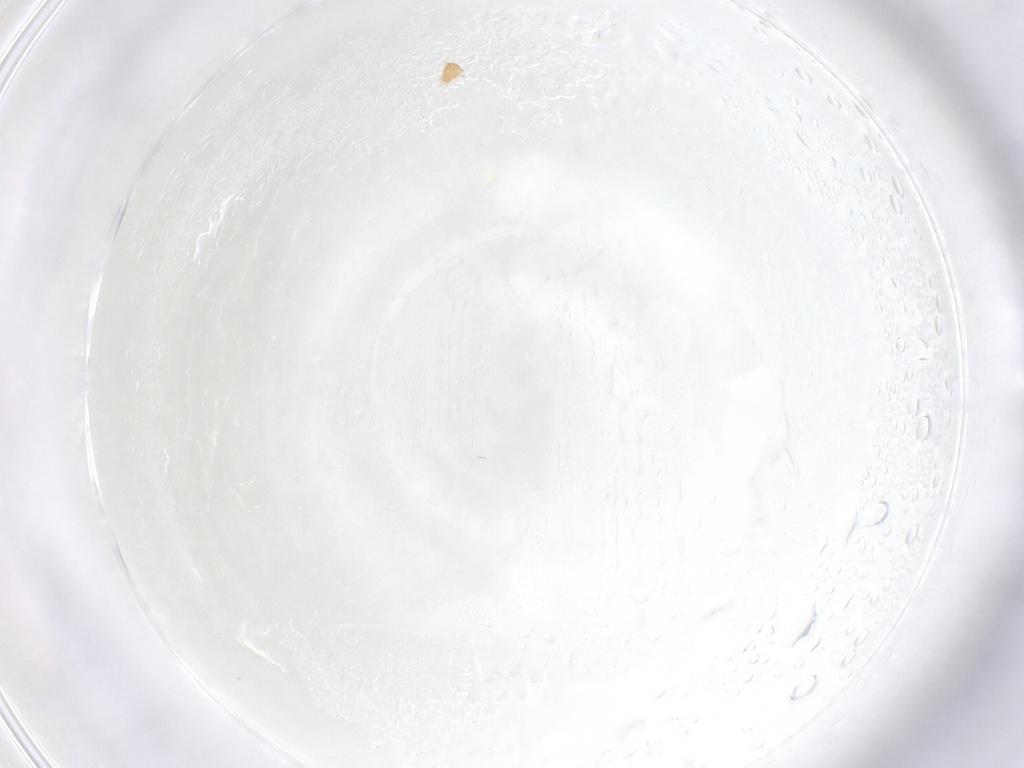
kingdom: Animalia
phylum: Arthropoda
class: Arachnida
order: Trombidiformes
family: Pygmephoridae
